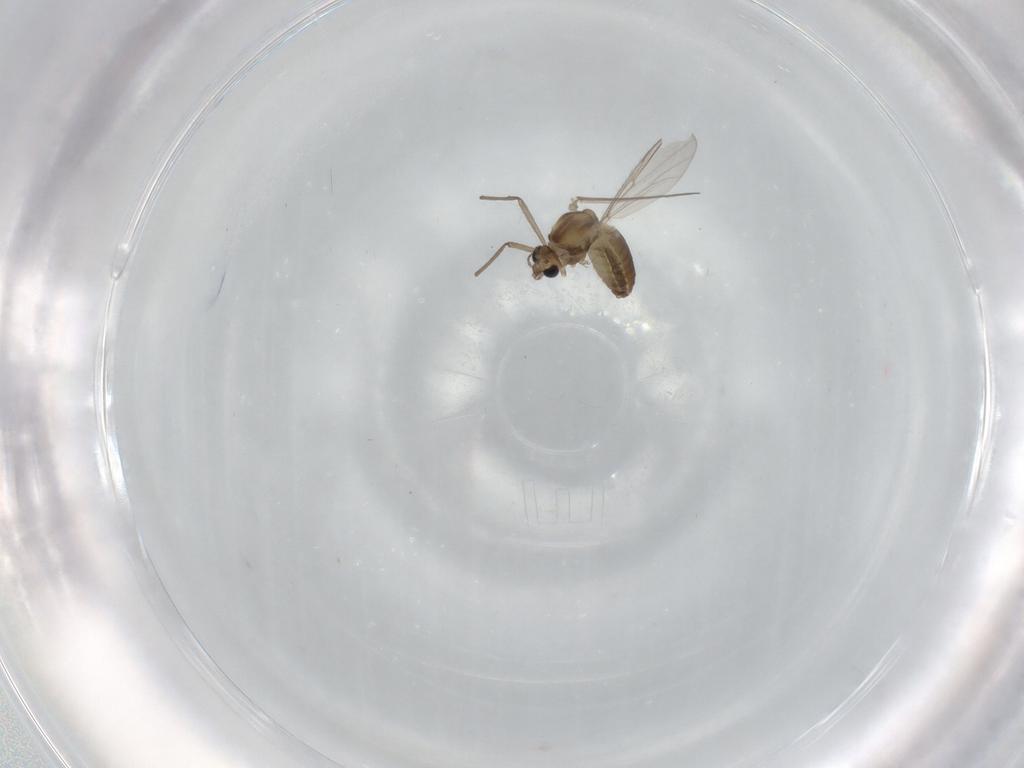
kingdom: Animalia
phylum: Arthropoda
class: Insecta
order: Diptera
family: Chironomidae
